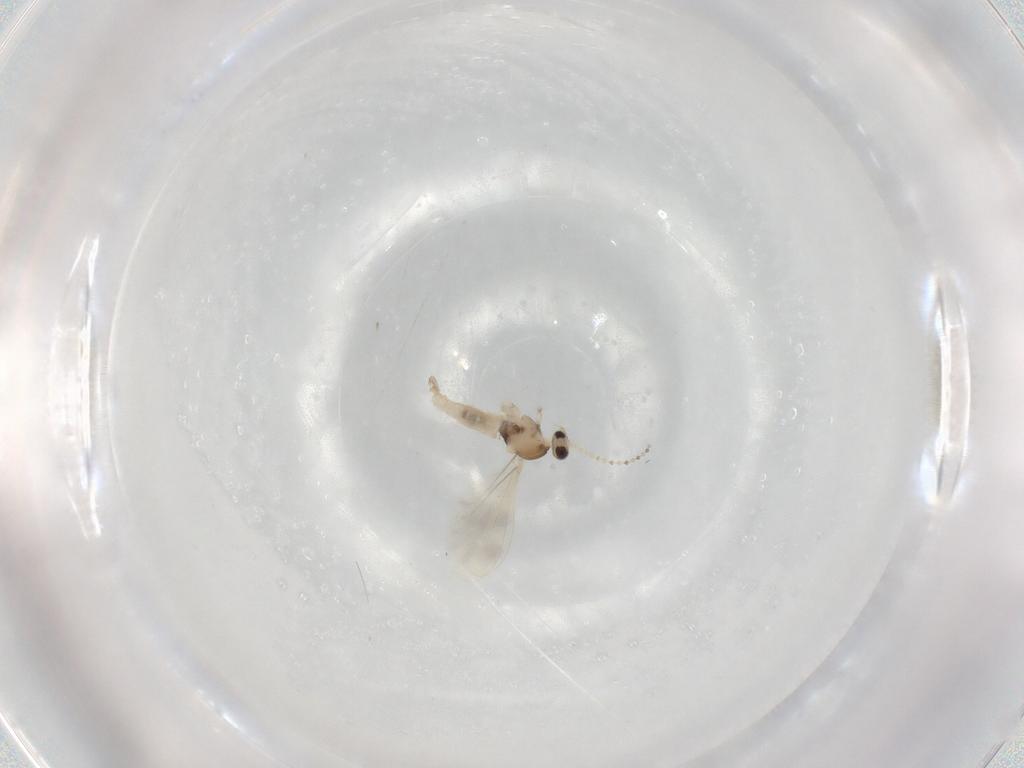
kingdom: Animalia
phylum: Arthropoda
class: Insecta
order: Diptera
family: Cecidomyiidae
